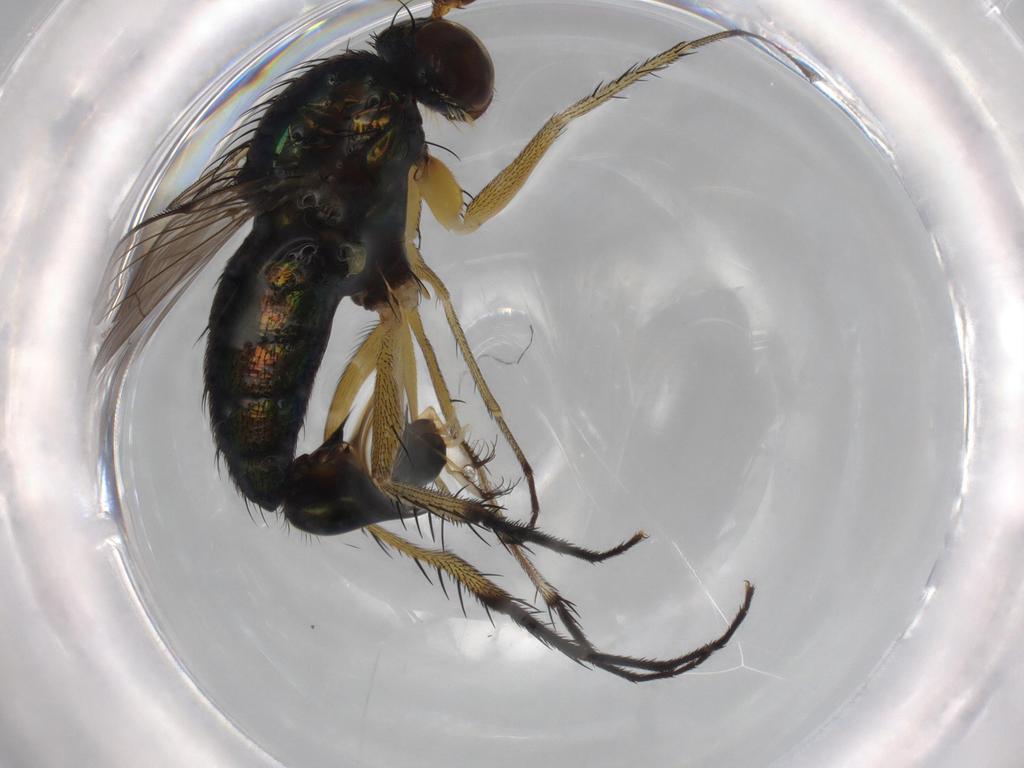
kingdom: Animalia
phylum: Arthropoda
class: Insecta
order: Diptera
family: Dolichopodidae
